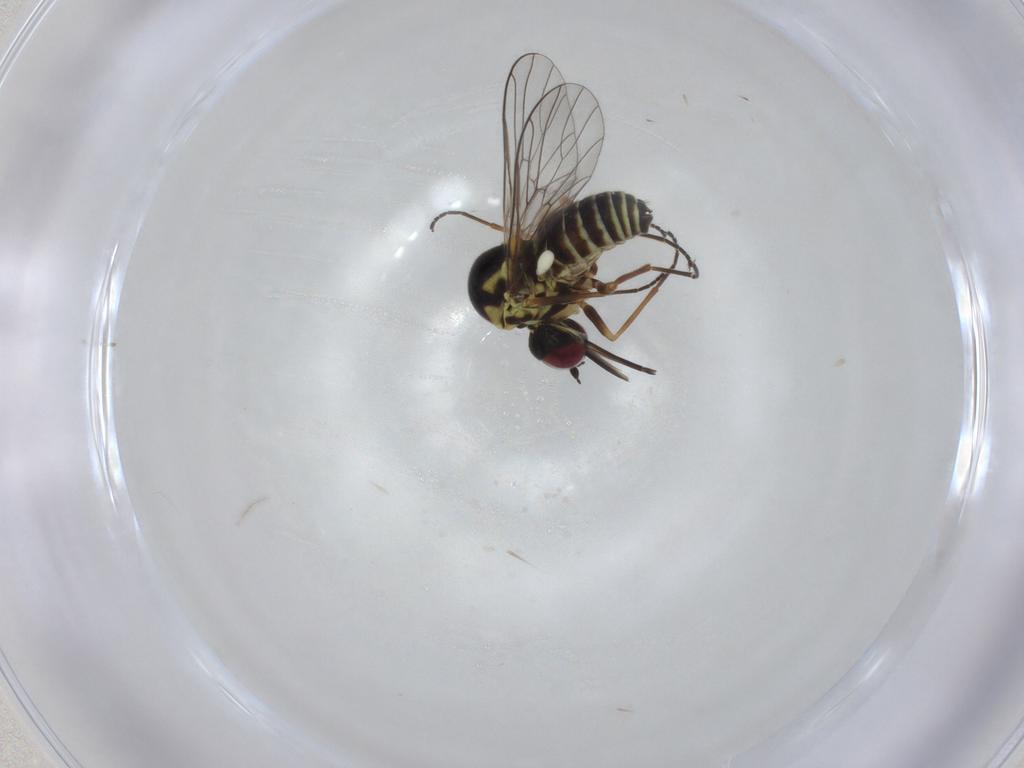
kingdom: Animalia
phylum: Arthropoda
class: Insecta
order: Diptera
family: Bombyliidae
